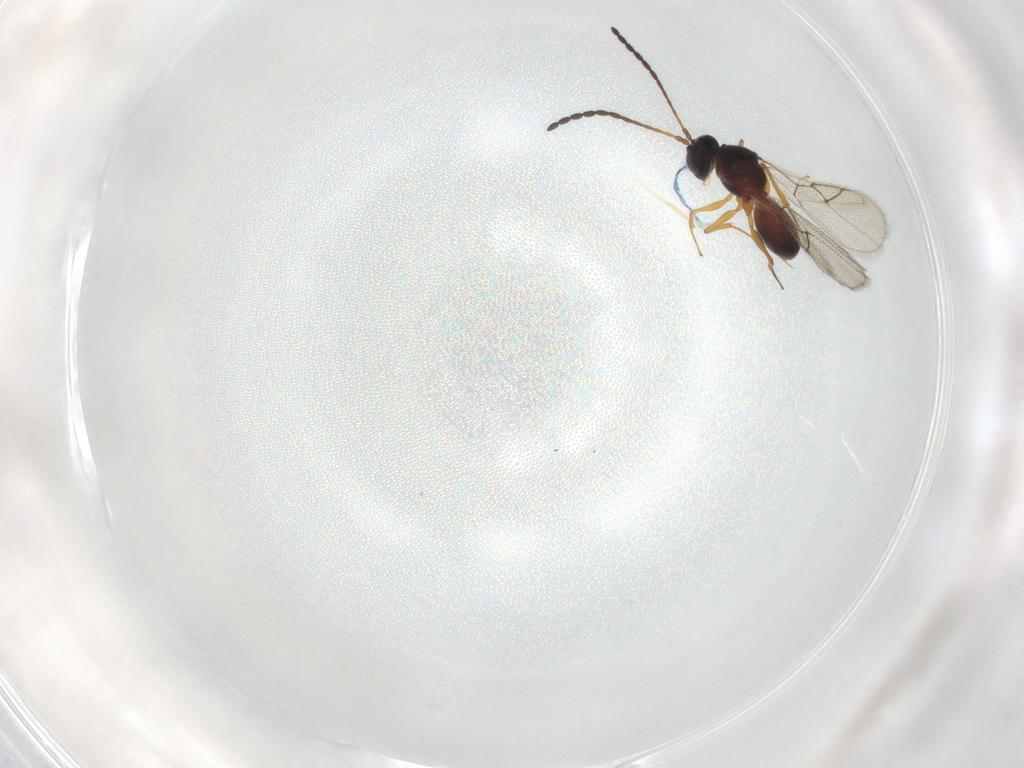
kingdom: Animalia
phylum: Arthropoda
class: Insecta
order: Hymenoptera
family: Figitidae
